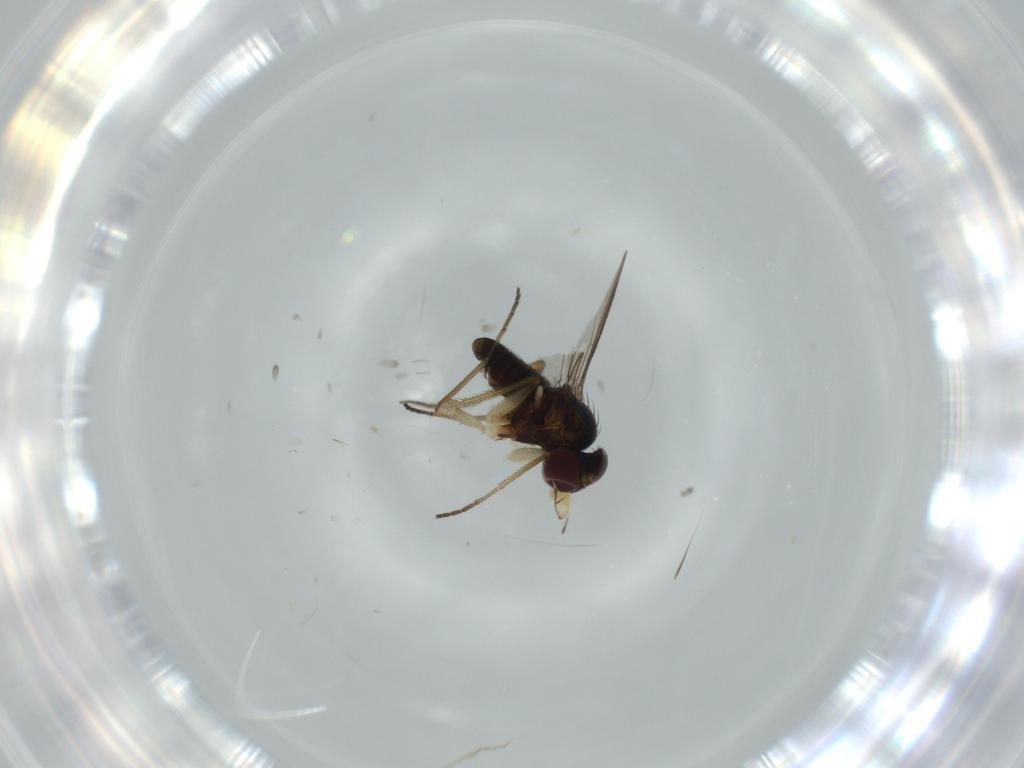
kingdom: Animalia
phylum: Arthropoda
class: Insecta
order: Diptera
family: Dolichopodidae
